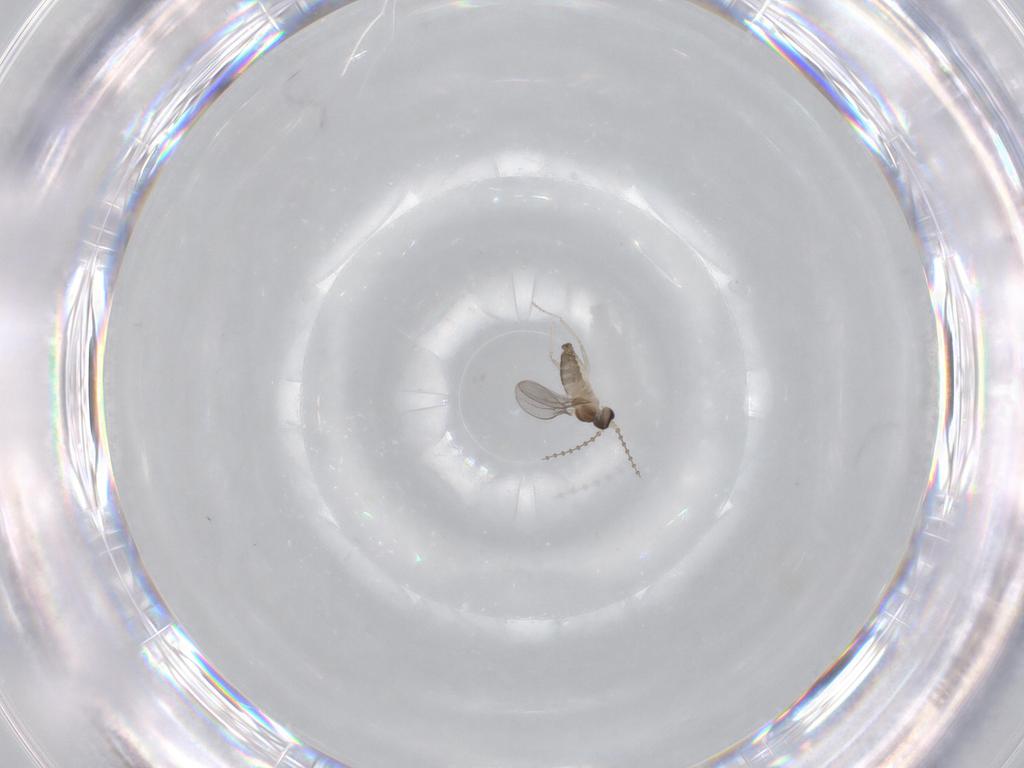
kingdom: Animalia
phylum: Arthropoda
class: Insecta
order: Diptera
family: Cecidomyiidae
